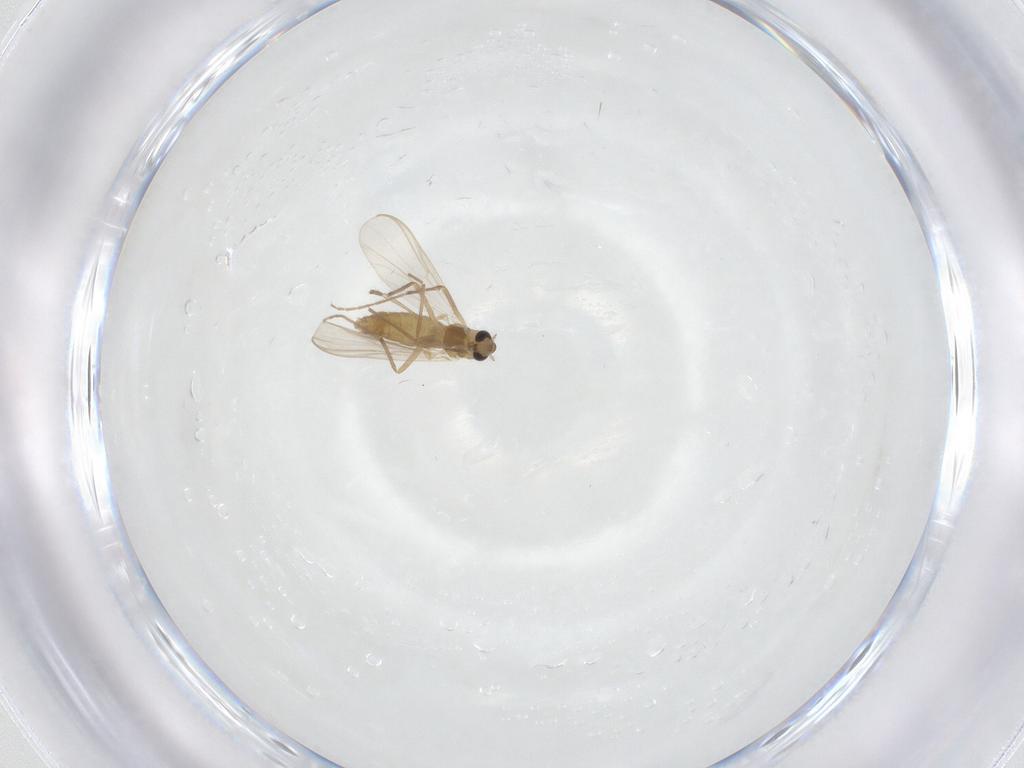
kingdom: Animalia
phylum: Arthropoda
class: Insecta
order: Diptera
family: Chironomidae
